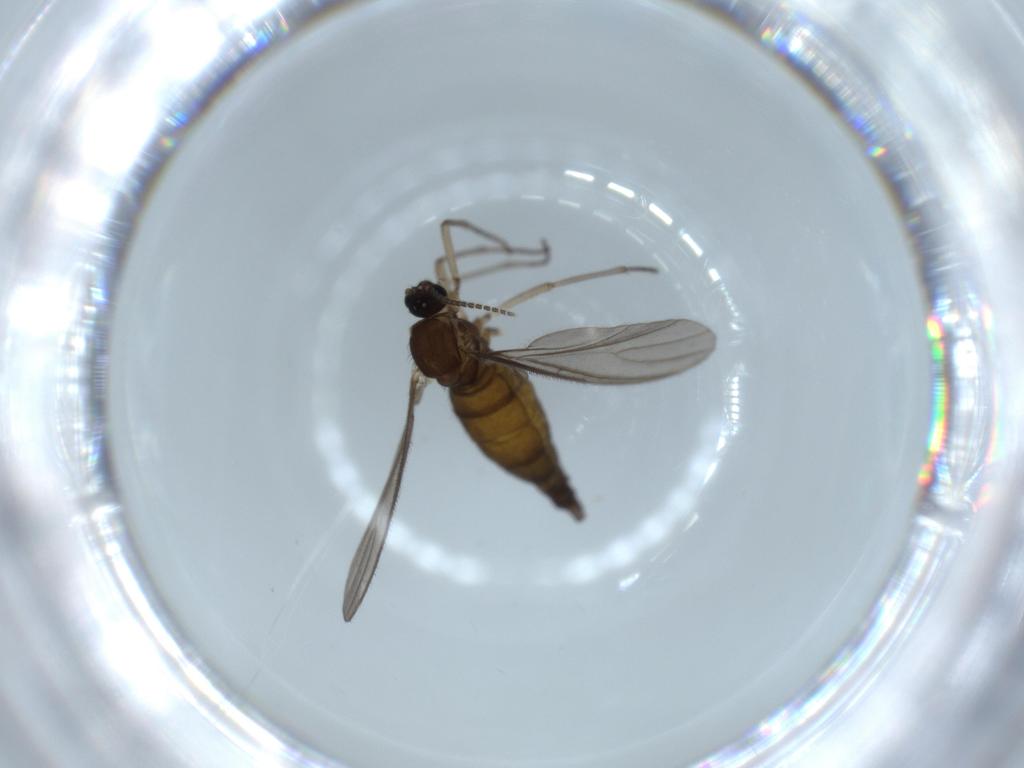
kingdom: Animalia
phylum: Arthropoda
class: Insecta
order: Diptera
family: Sciaridae
